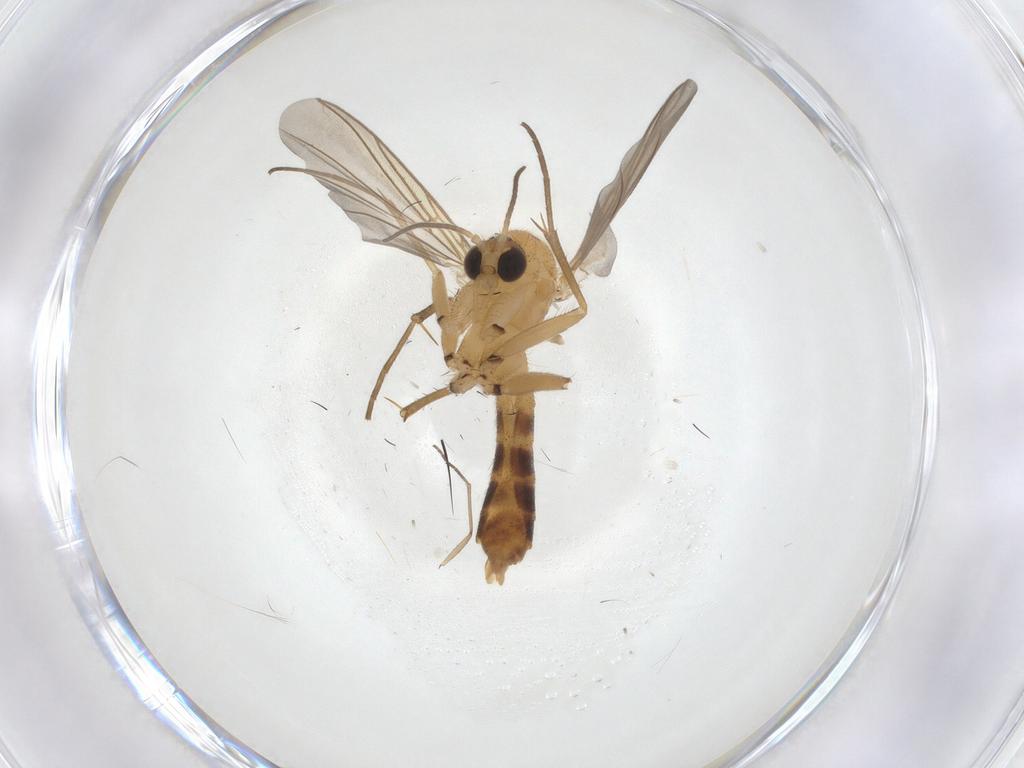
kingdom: Animalia
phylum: Arthropoda
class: Insecta
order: Diptera
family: Mycetophilidae
